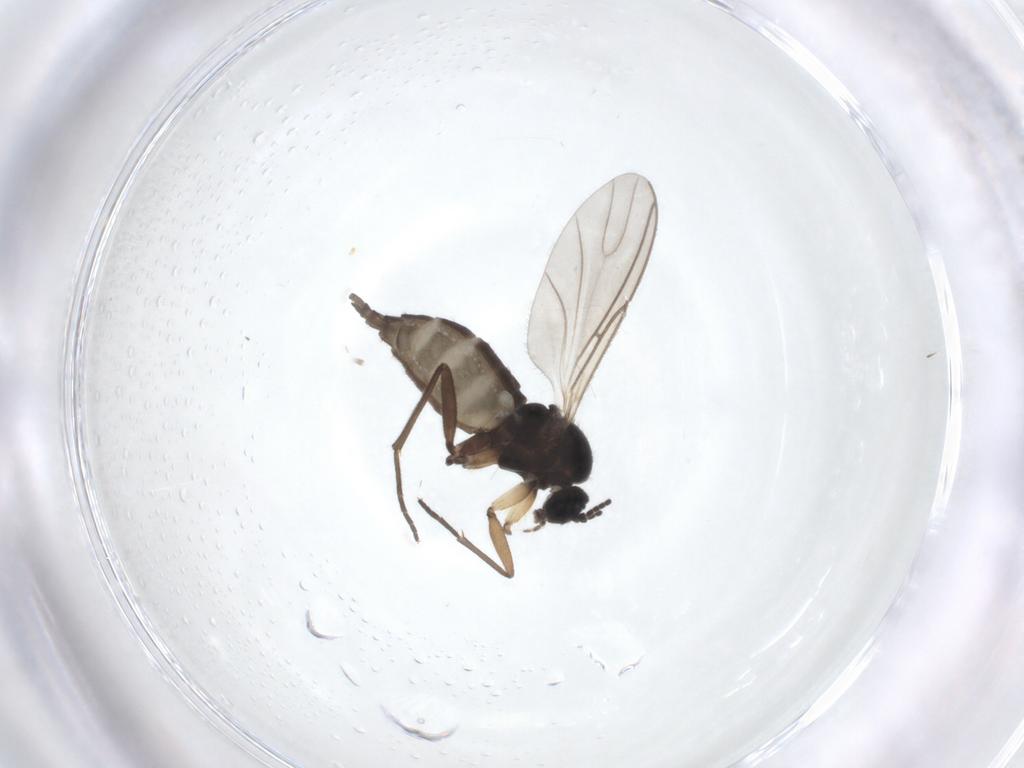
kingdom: Animalia
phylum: Arthropoda
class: Insecta
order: Diptera
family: Sciaridae
